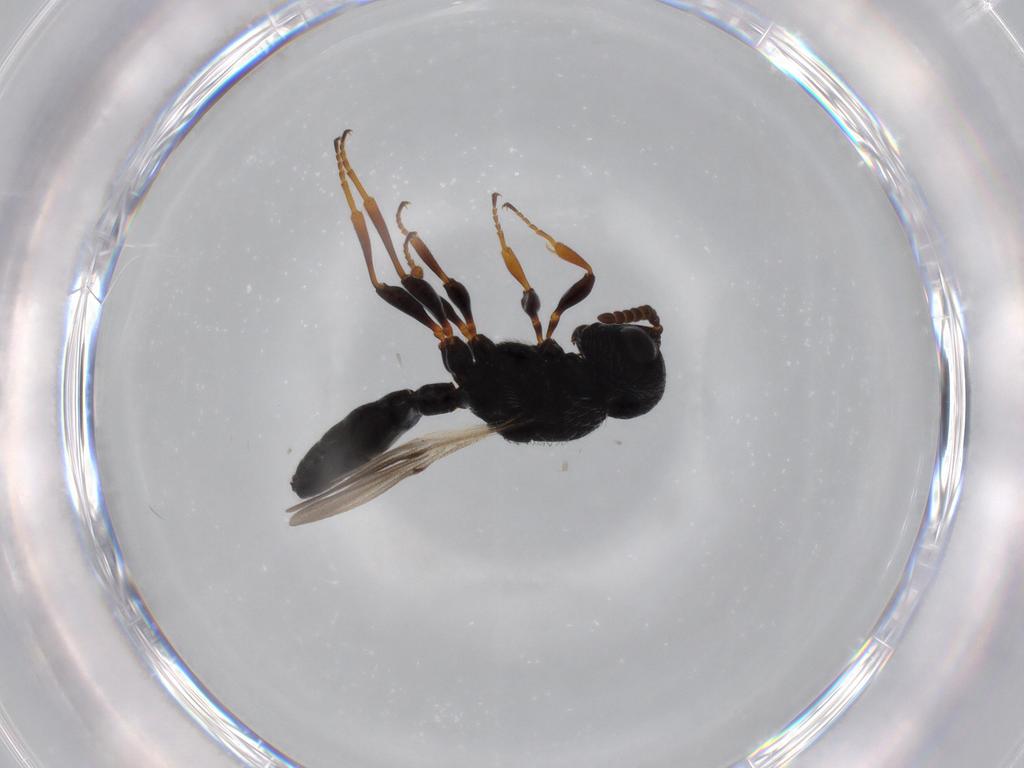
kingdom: Animalia
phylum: Arthropoda
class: Insecta
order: Hymenoptera
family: Scelionidae
